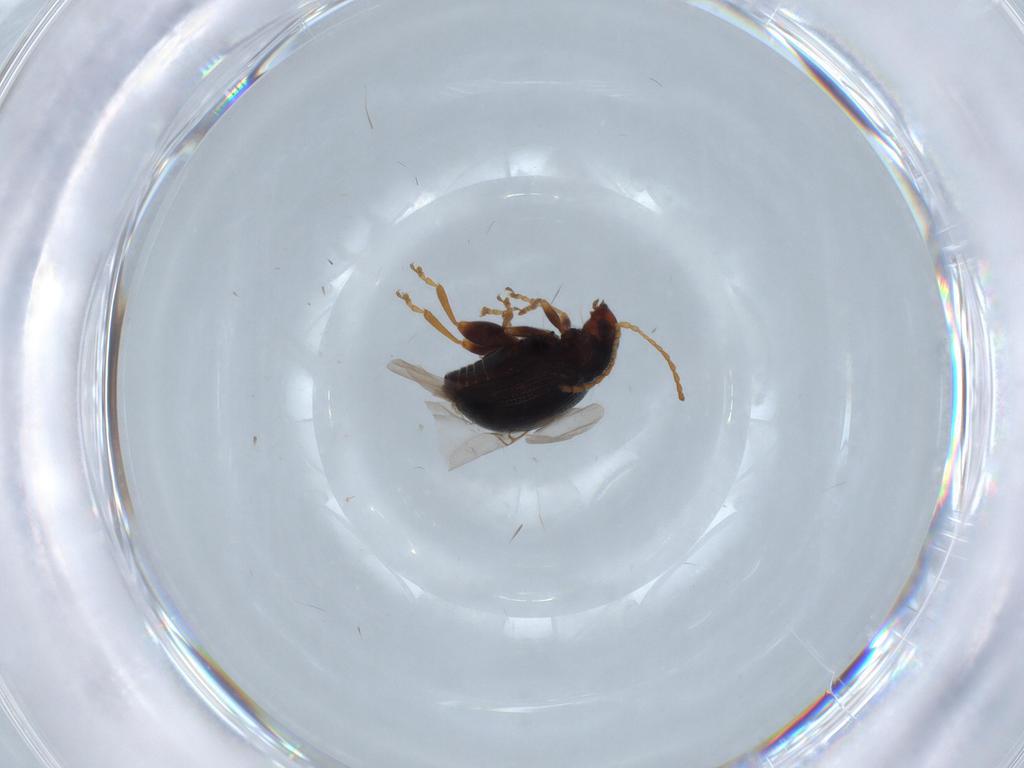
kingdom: Animalia
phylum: Arthropoda
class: Insecta
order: Coleoptera
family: Chrysomelidae
